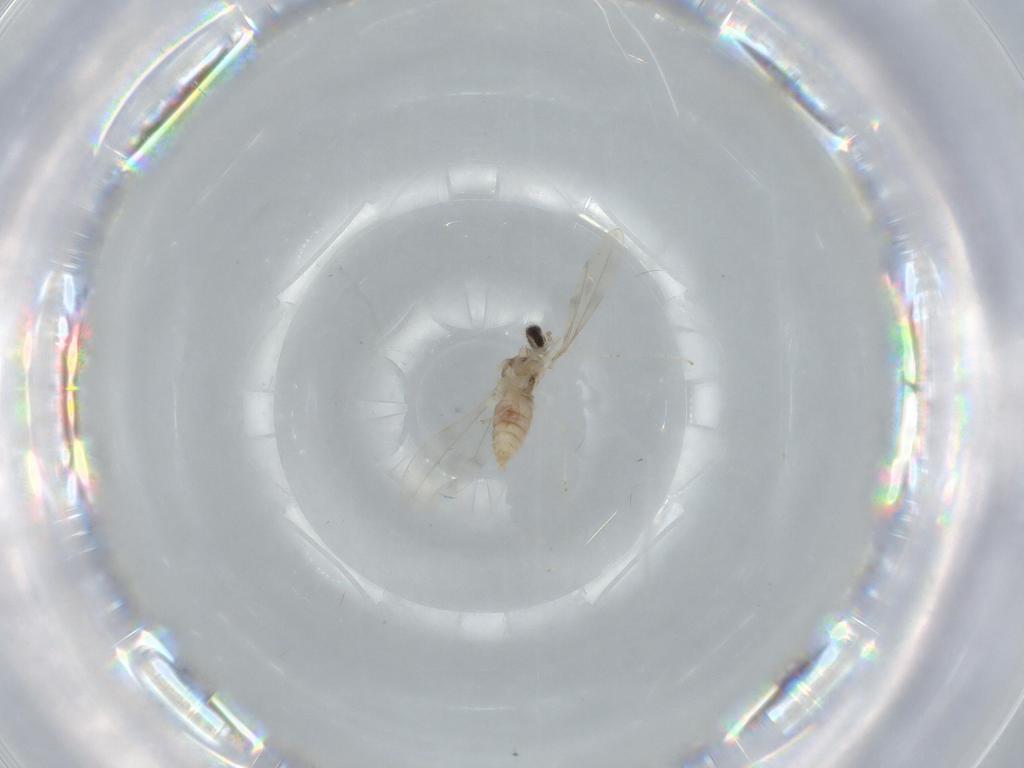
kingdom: Animalia
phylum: Arthropoda
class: Insecta
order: Diptera
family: Cecidomyiidae
